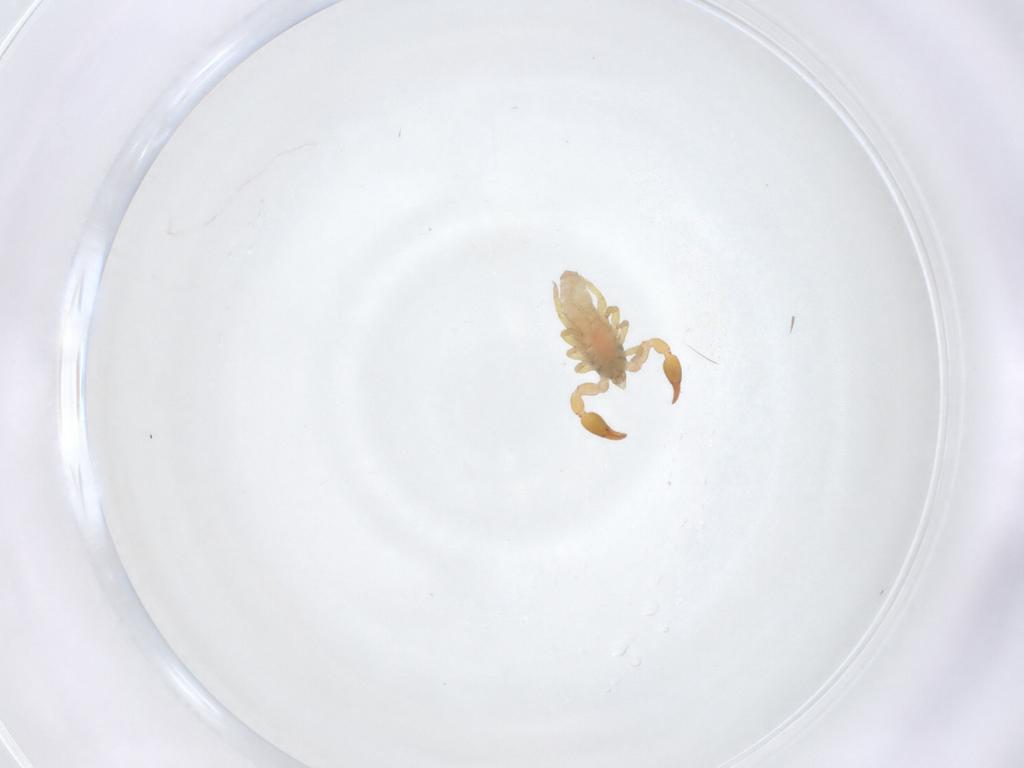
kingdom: Animalia
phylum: Arthropoda
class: Arachnida
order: Pseudoscorpiones
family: Chernetidae
